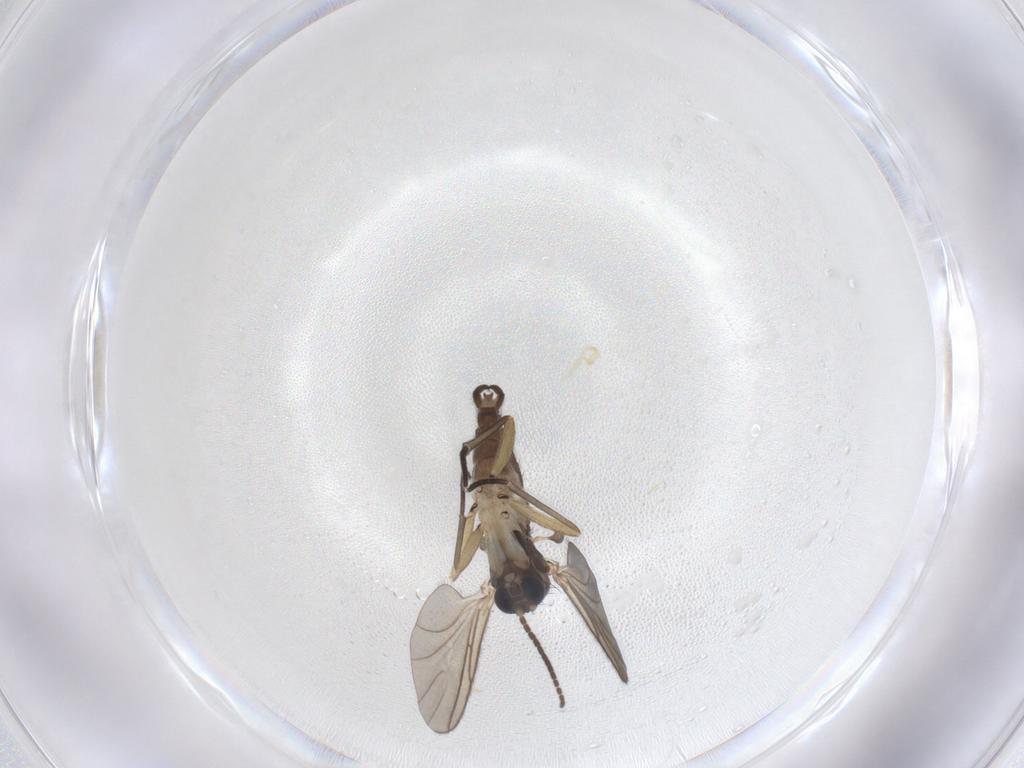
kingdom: Animalia
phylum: Arthropoda
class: Insecta
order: Diptera
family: Sciaridae
